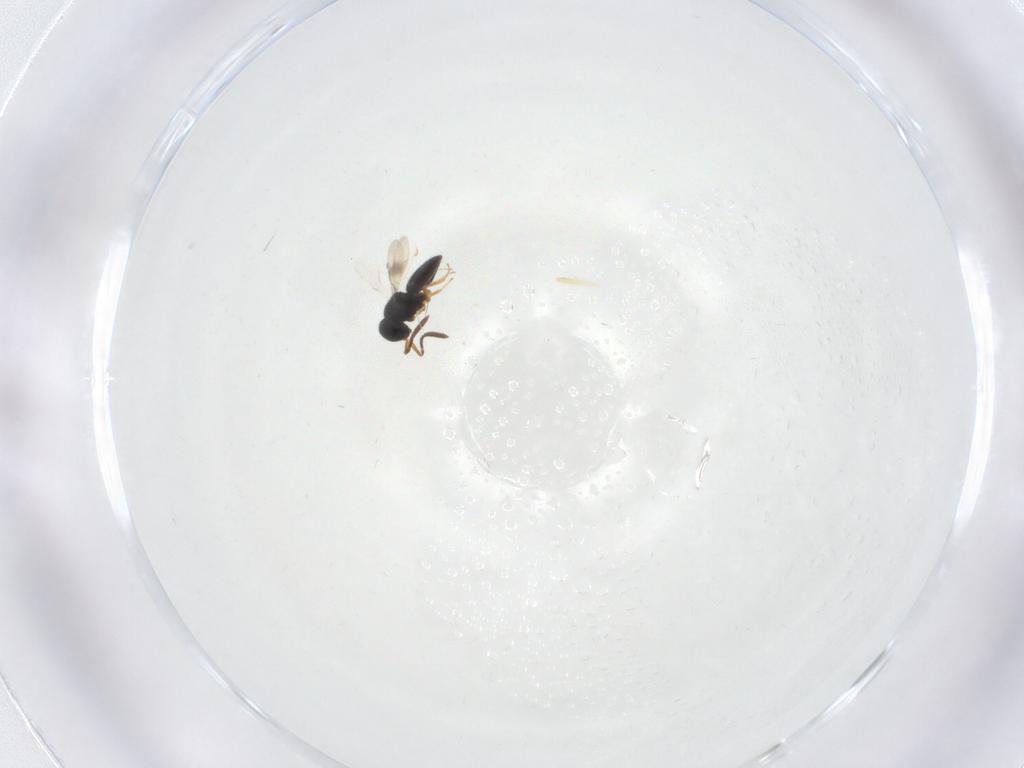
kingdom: Animalia
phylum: Arthropoda
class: Insecta
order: Hymenoptera
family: Scelionidae
